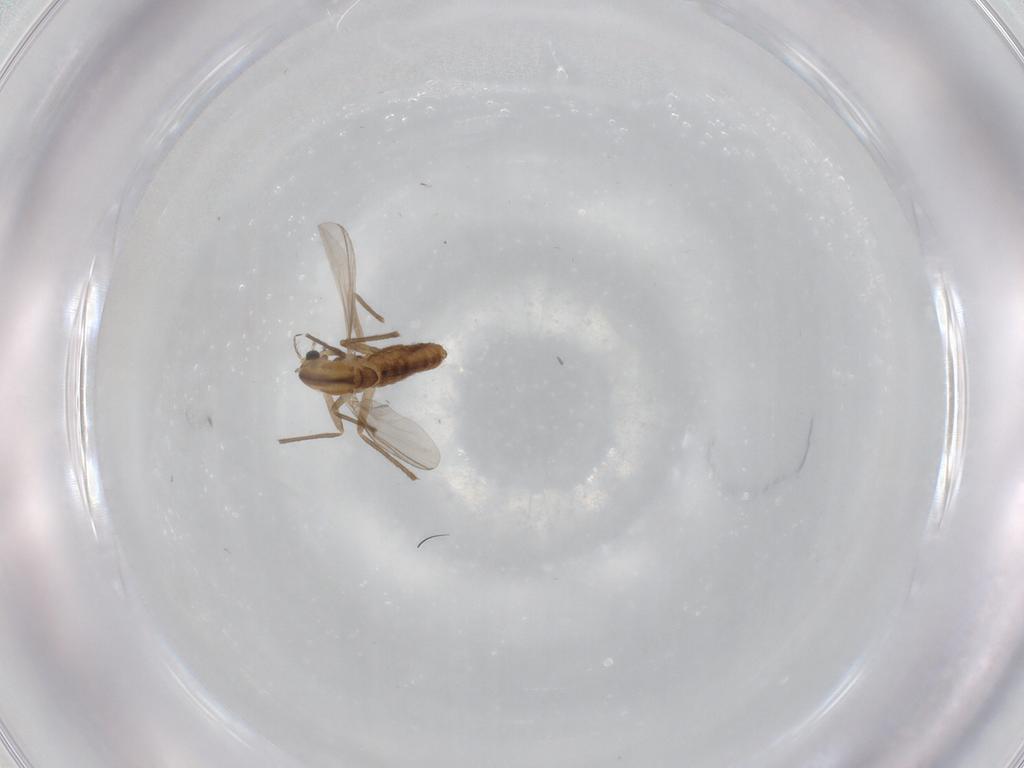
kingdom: Animalia
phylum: Arthropoda
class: Insecta
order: Diptera
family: Chironomidae
